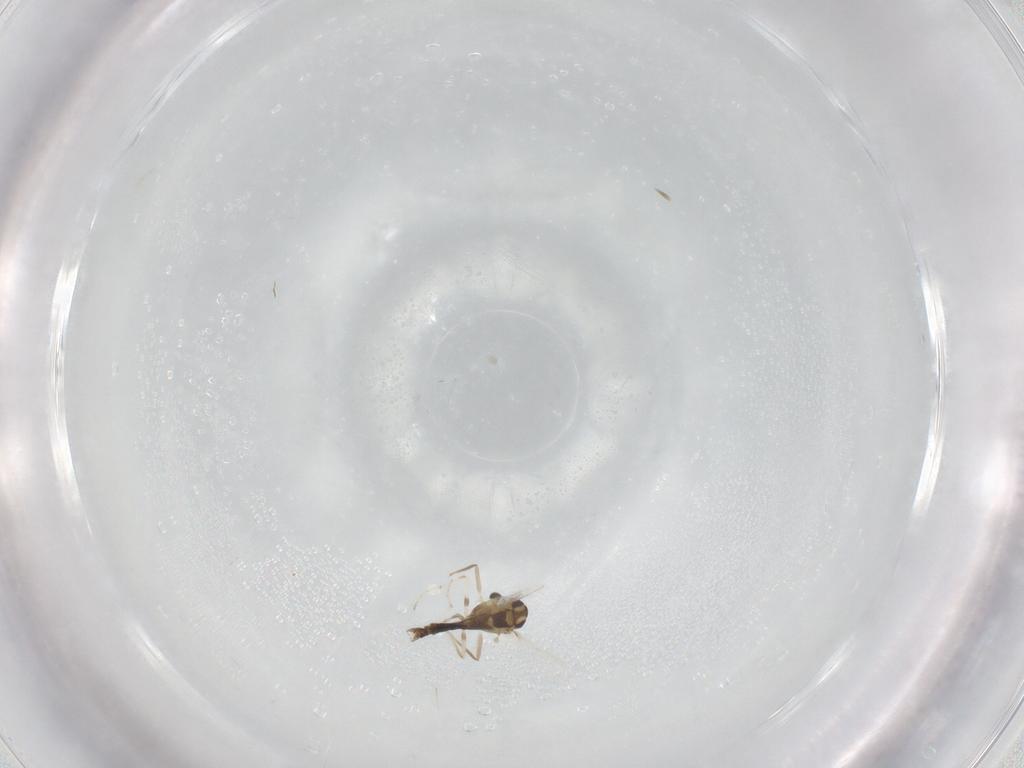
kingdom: Animalia
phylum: Arthropoda
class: Insecta
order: Diptera
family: Chironomidae
